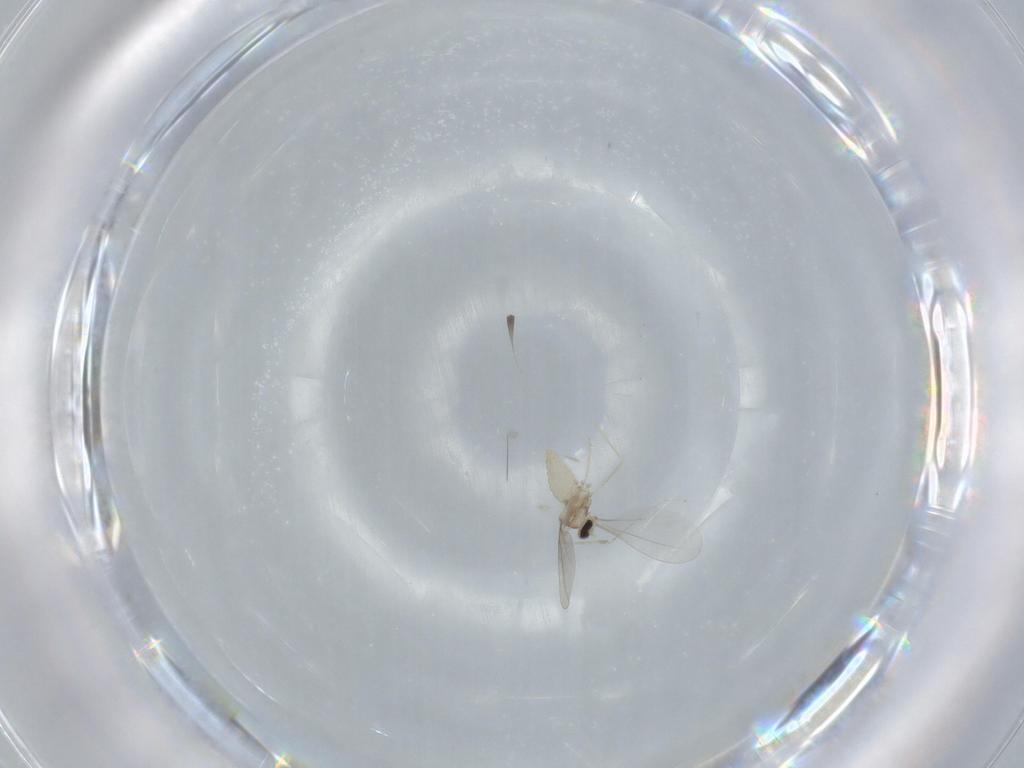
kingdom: Animalia
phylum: Arthropoda
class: Insecta
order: Diptera
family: Cecidomyiidae
